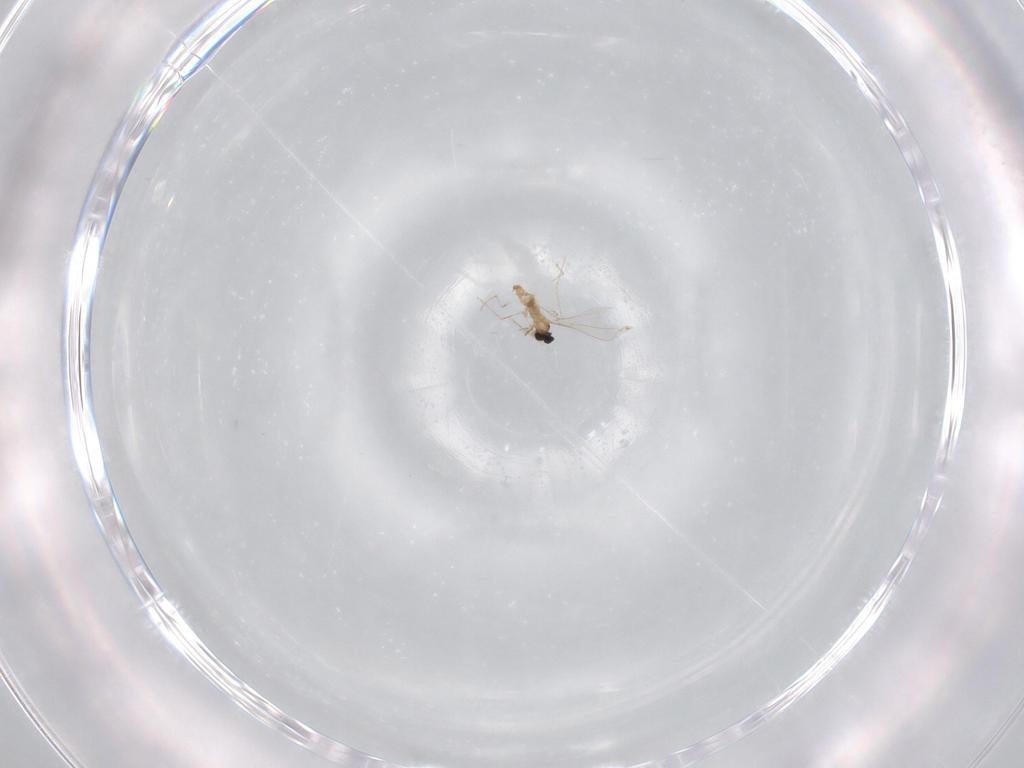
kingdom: Animalia
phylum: Arthropoda
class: Insecta
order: Diptera
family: Cecidomyiidae
